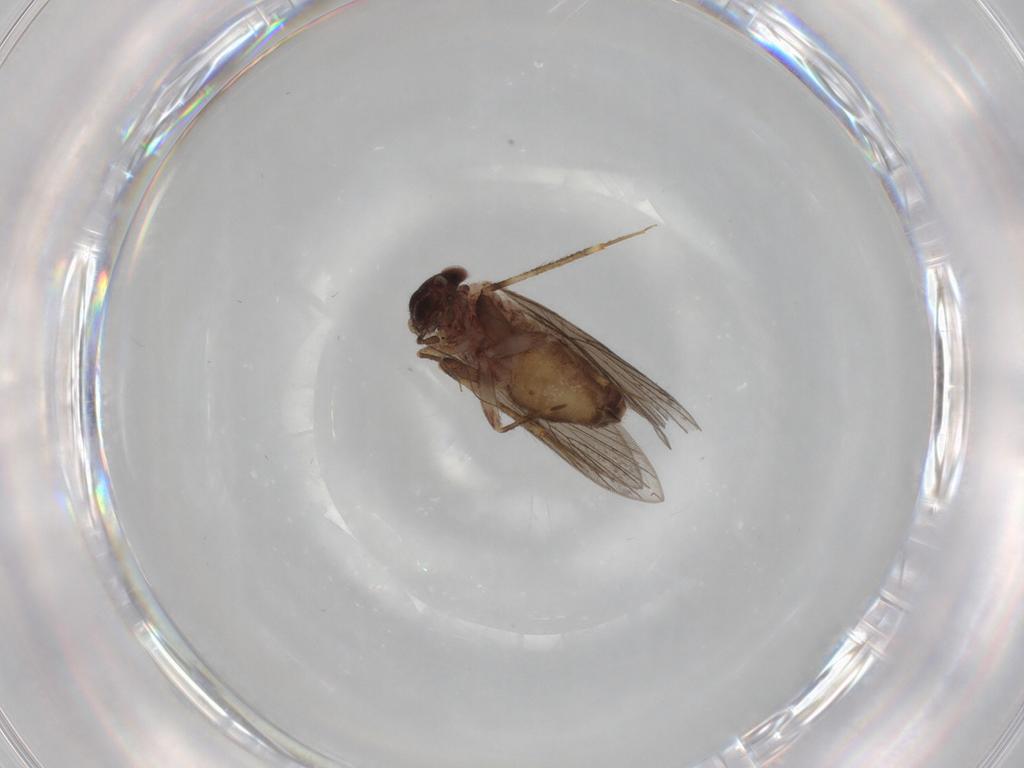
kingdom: Animalia
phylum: Arthropoda
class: Insecta
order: Psocodea
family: Lepidopsocidae
